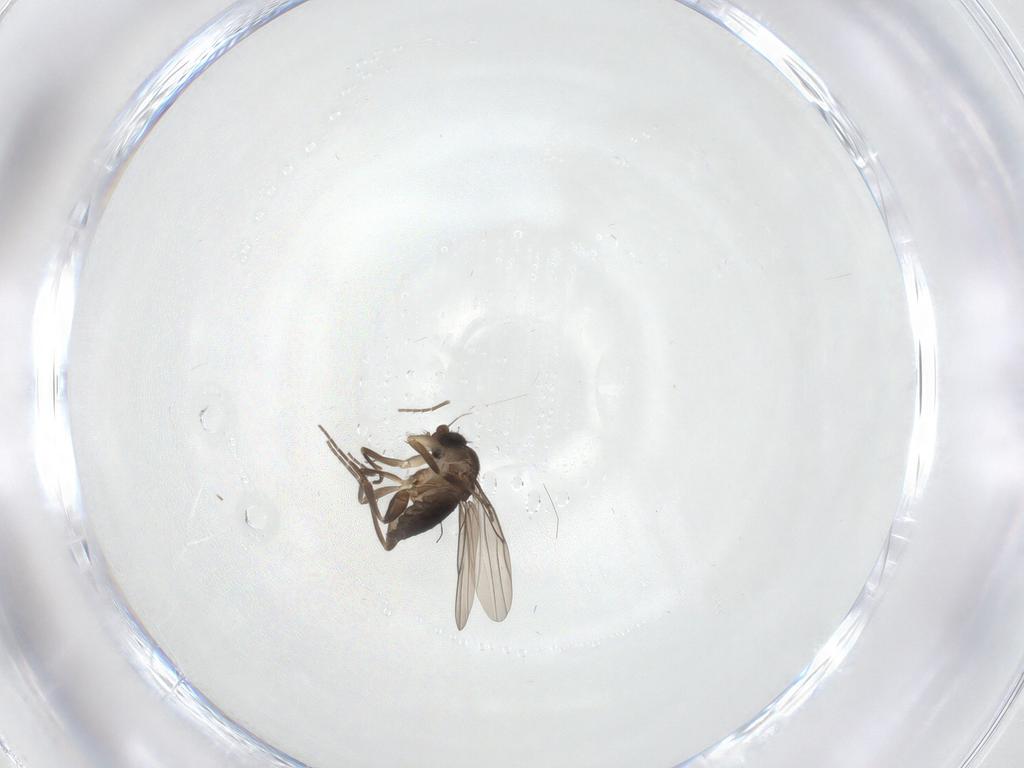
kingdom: Animalia
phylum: Arthropoda
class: Insecta
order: Diptera
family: Phoridae
